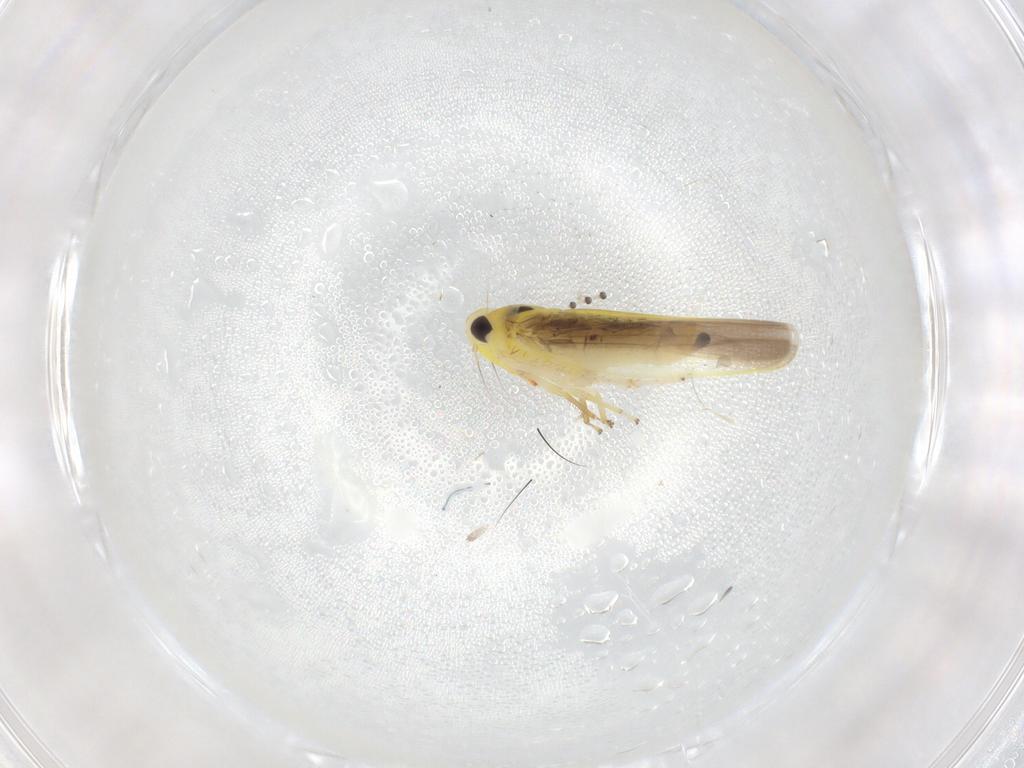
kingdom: Animalia
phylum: Arthropoda
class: Insecta
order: Hemiptera
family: Cicadellidae
